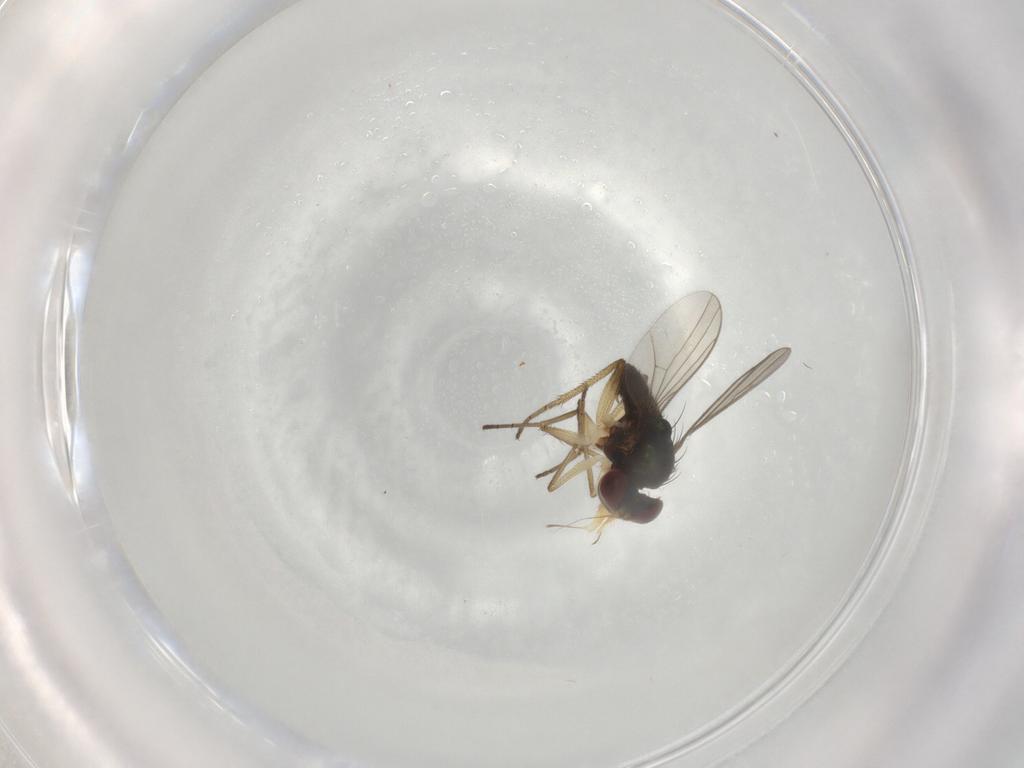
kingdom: Animalia
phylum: Arthropoda
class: Insecta
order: Diptera
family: Dolichopodidae
